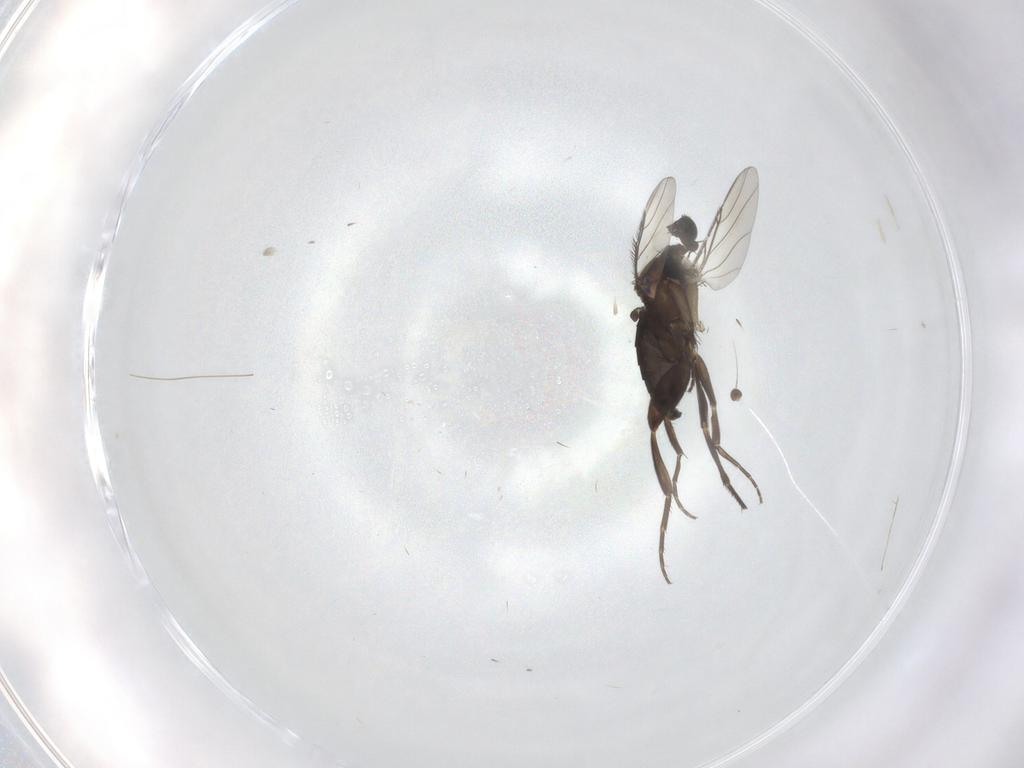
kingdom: Animalia
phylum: Arthropoda
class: Insecta
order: Diptera
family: Phoridae
